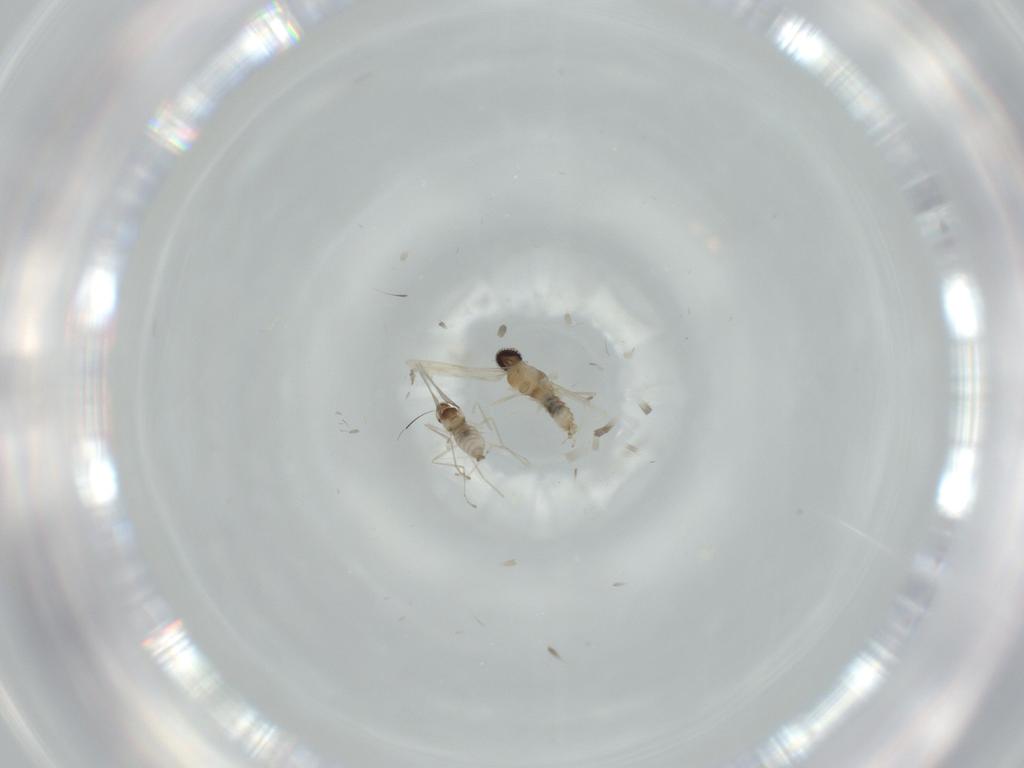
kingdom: Animalia
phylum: Arthropoda
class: Insecta
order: Diptera
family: Cecidomyiidae
